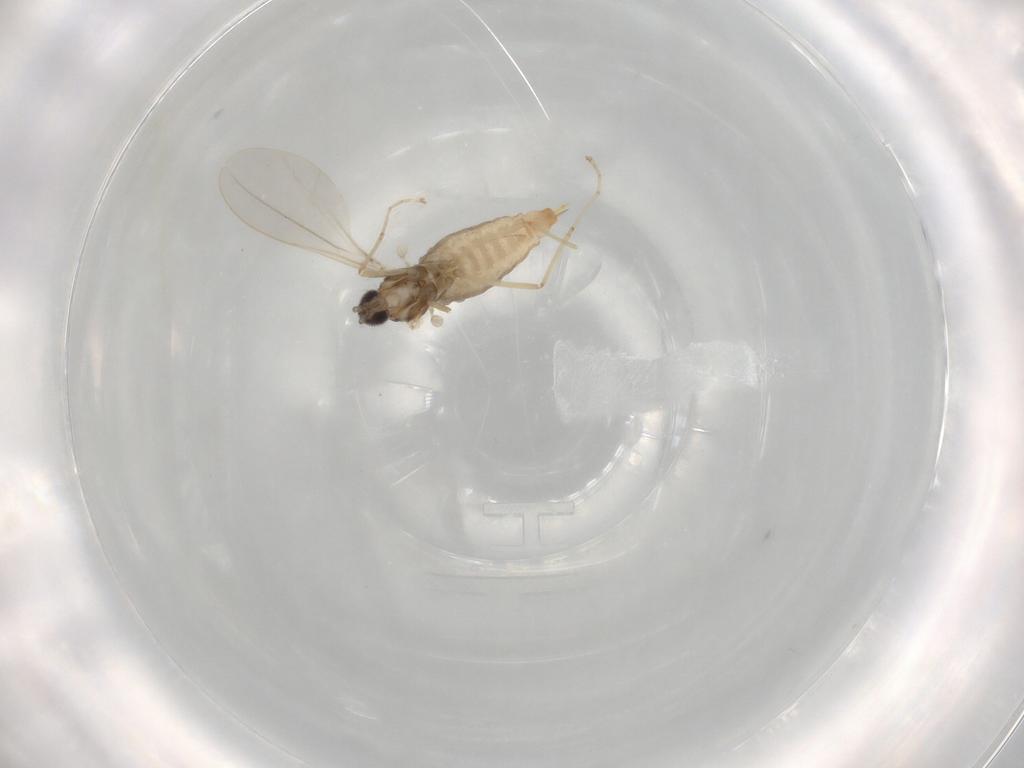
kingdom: Animalia
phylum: Arthropoda
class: Insecta
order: Diptera
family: Cecidomyiidae
